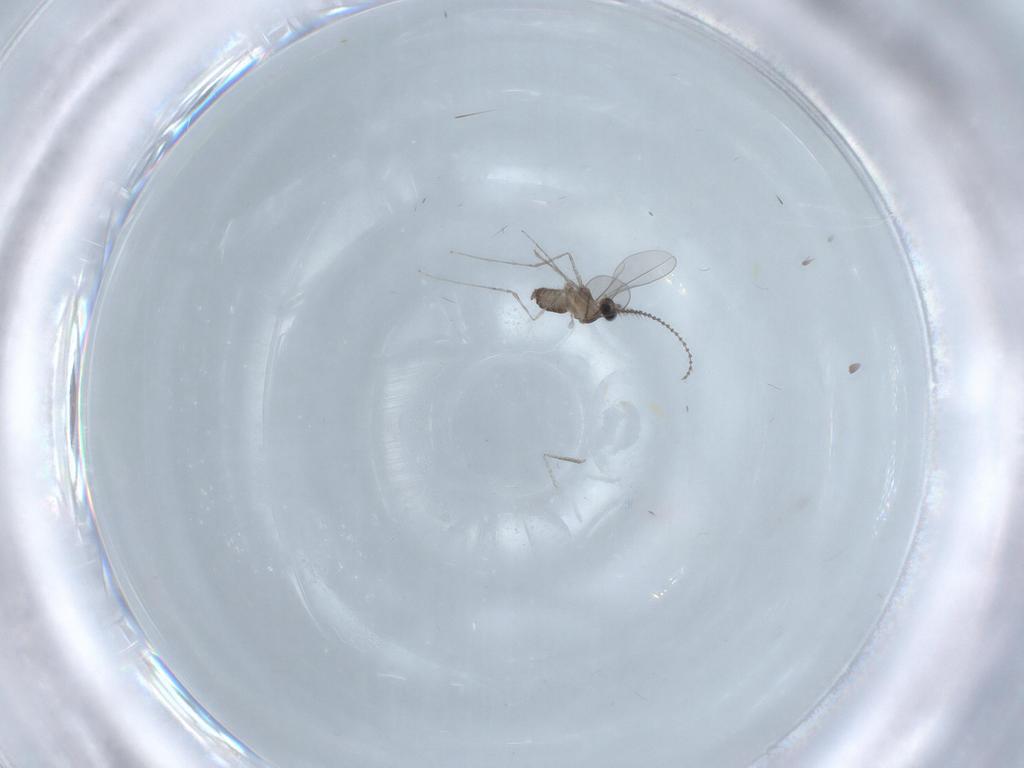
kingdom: Animalia
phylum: Arthropoda
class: Insecta
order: Diptera
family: Cecidomyiidae
